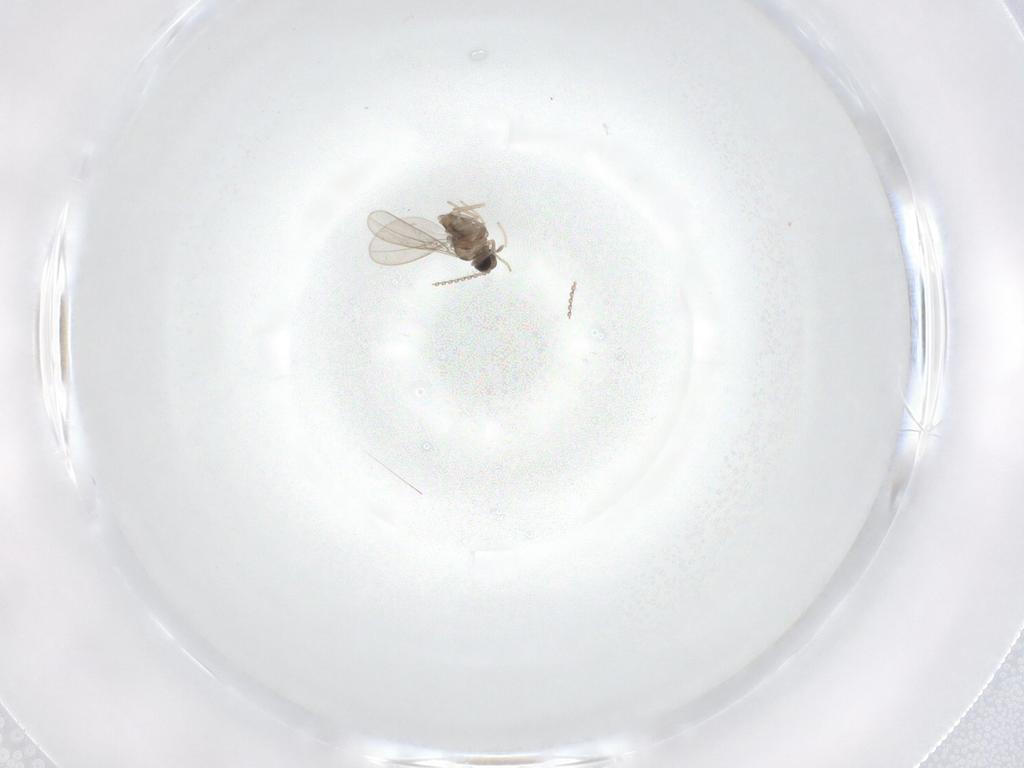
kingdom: Animalia
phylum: Arthropoda
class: Insecta
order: Diptera
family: Cecidomyiidae
